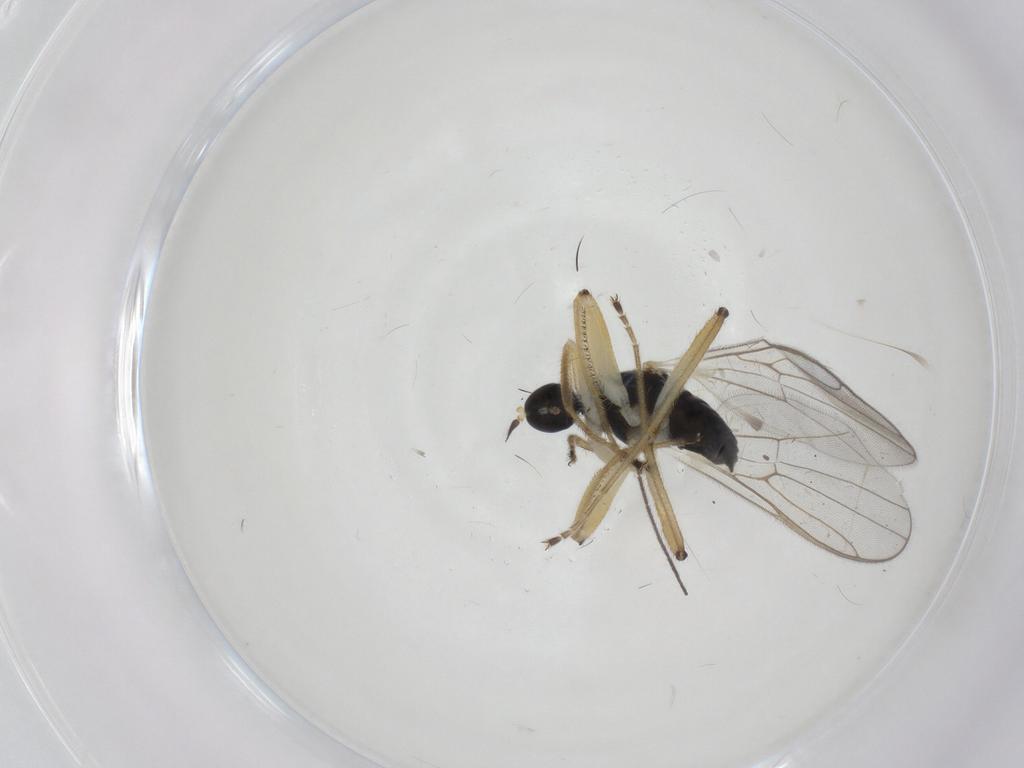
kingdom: Animalia
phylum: Arthropoda
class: Insecta
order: Diptera
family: Hybotidae
